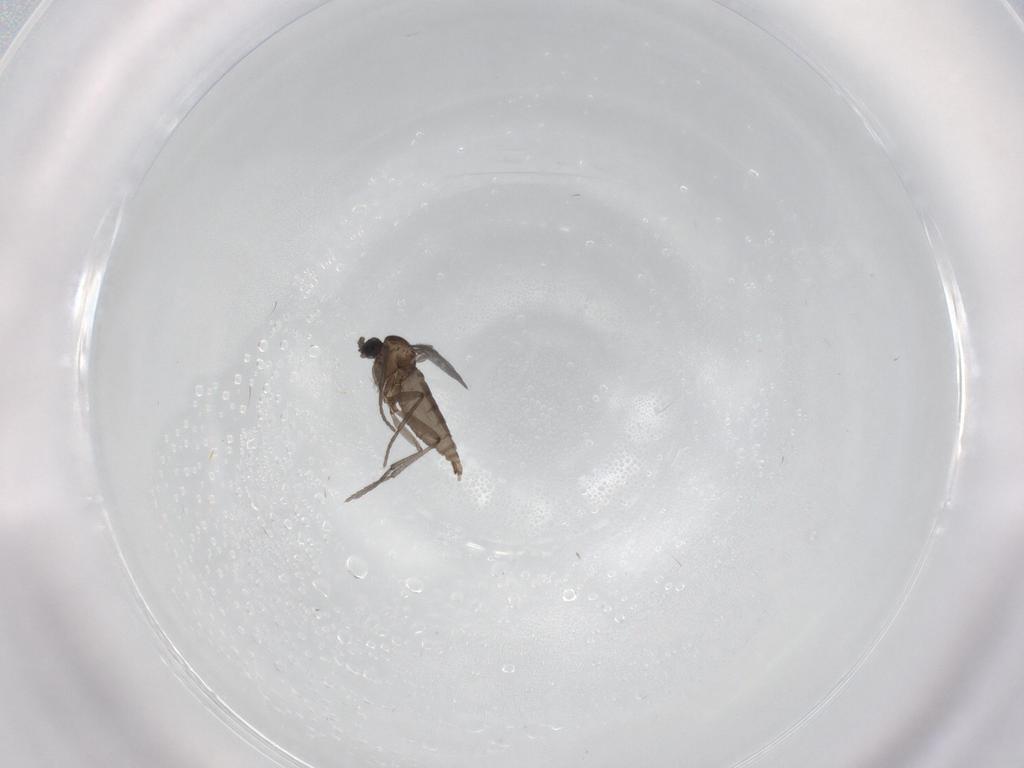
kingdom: Animalia
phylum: Arthropoda
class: Insecta
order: Diptera
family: Sciaridae
